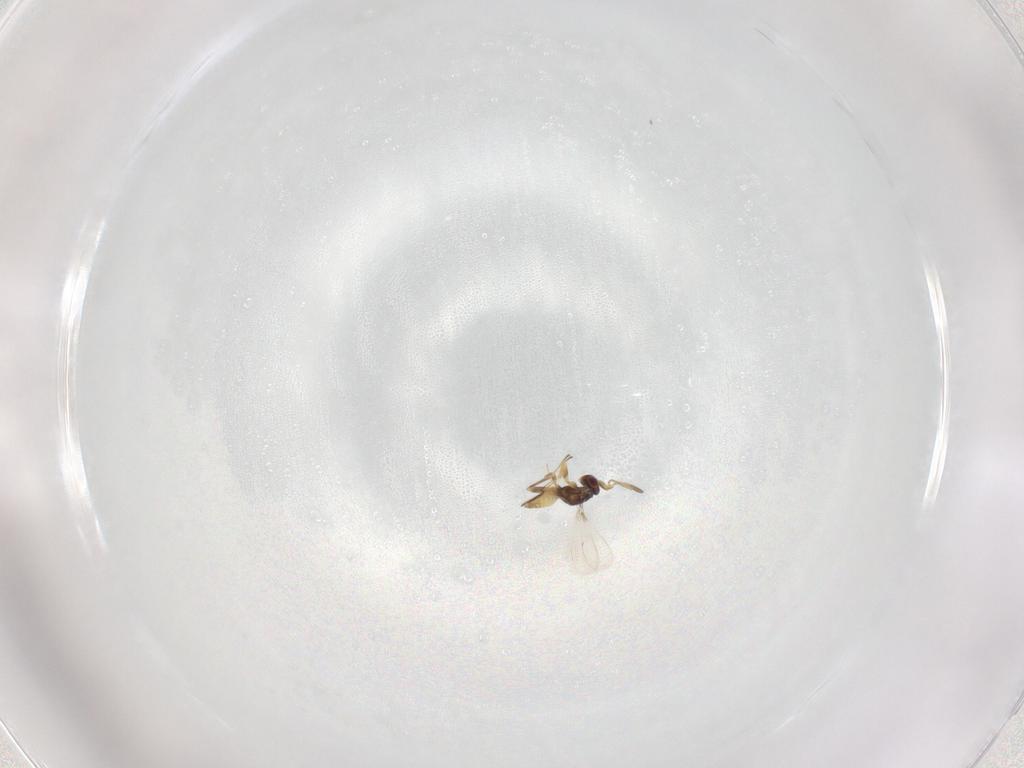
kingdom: Animalia
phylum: Arthropoda
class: Insecta
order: Hymenoptera
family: Mymaridae
